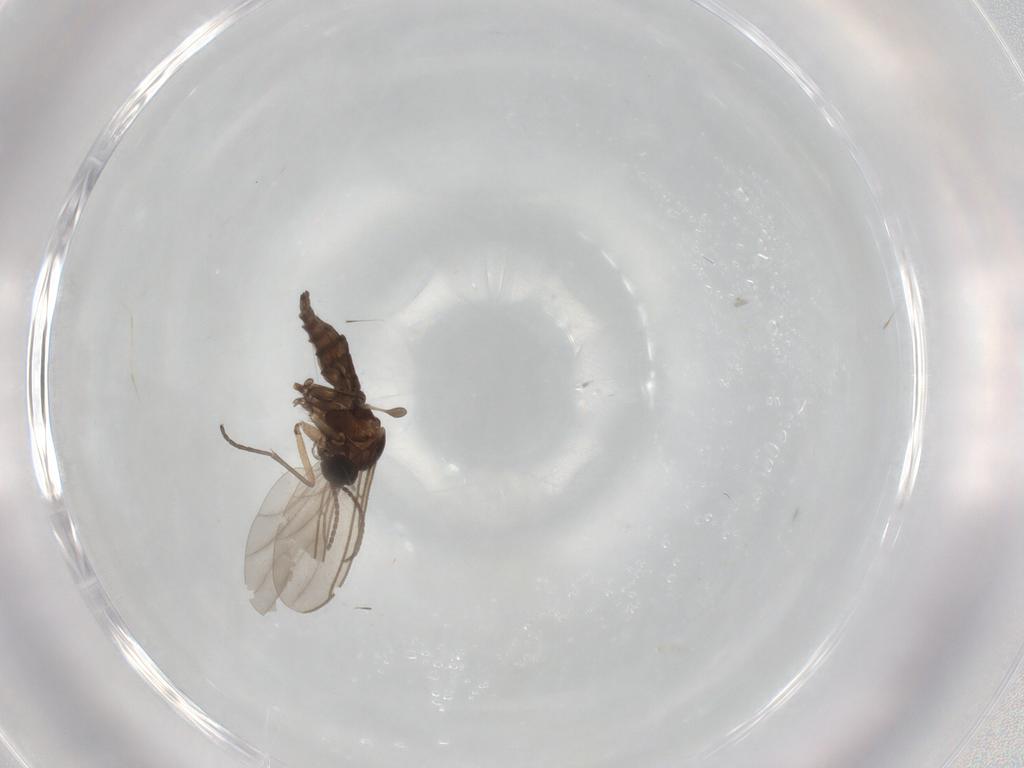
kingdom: Animalia
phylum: Arthropoda
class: Insecta
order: Diptera
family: Sciaridae
